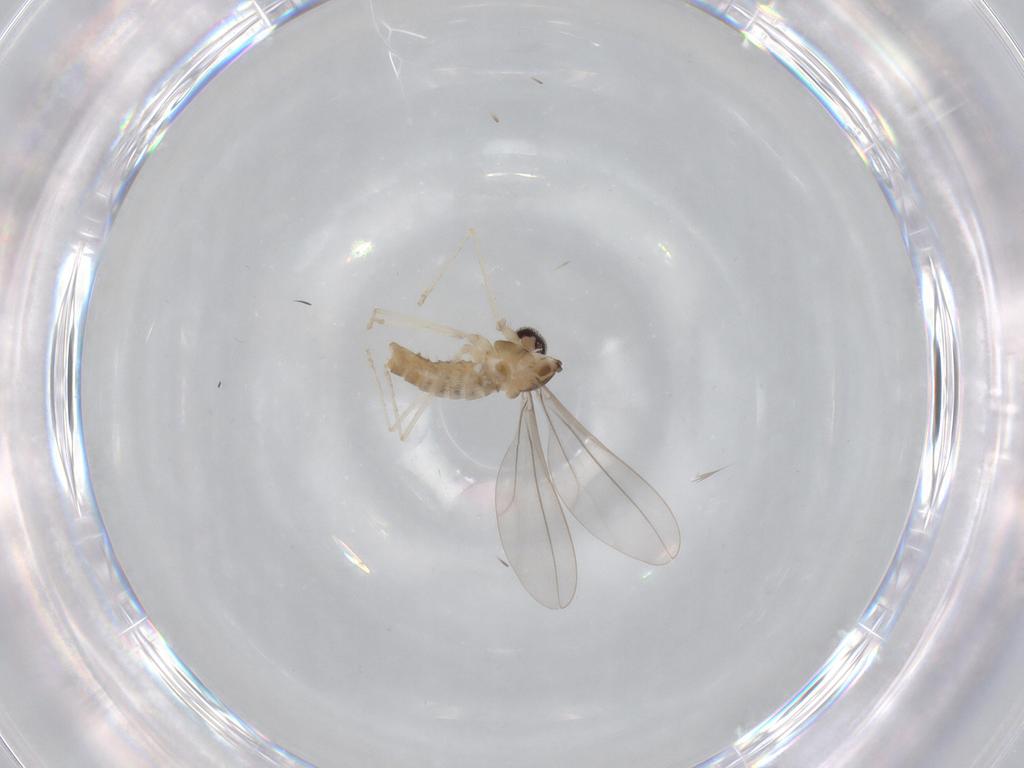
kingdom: Animalia
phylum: Arthropoda
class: Insecta
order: Diptera
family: Cecidomyiidae
